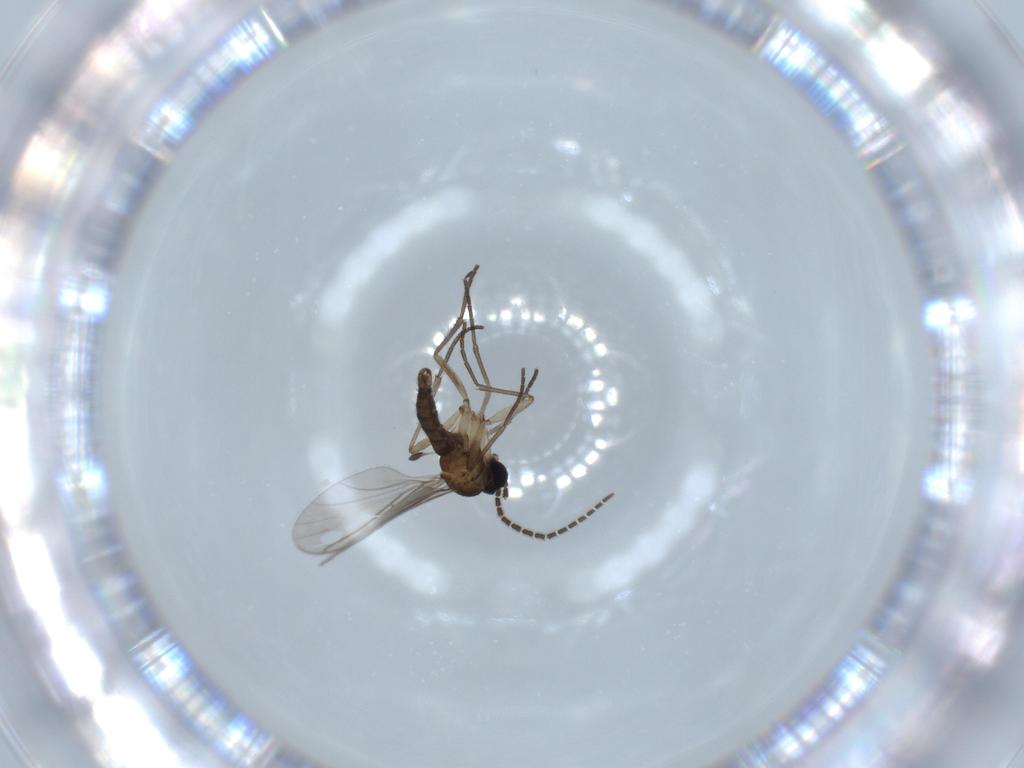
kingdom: Animalia
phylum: Arthropoda
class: Insecta
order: Diptera
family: Sciaridae
